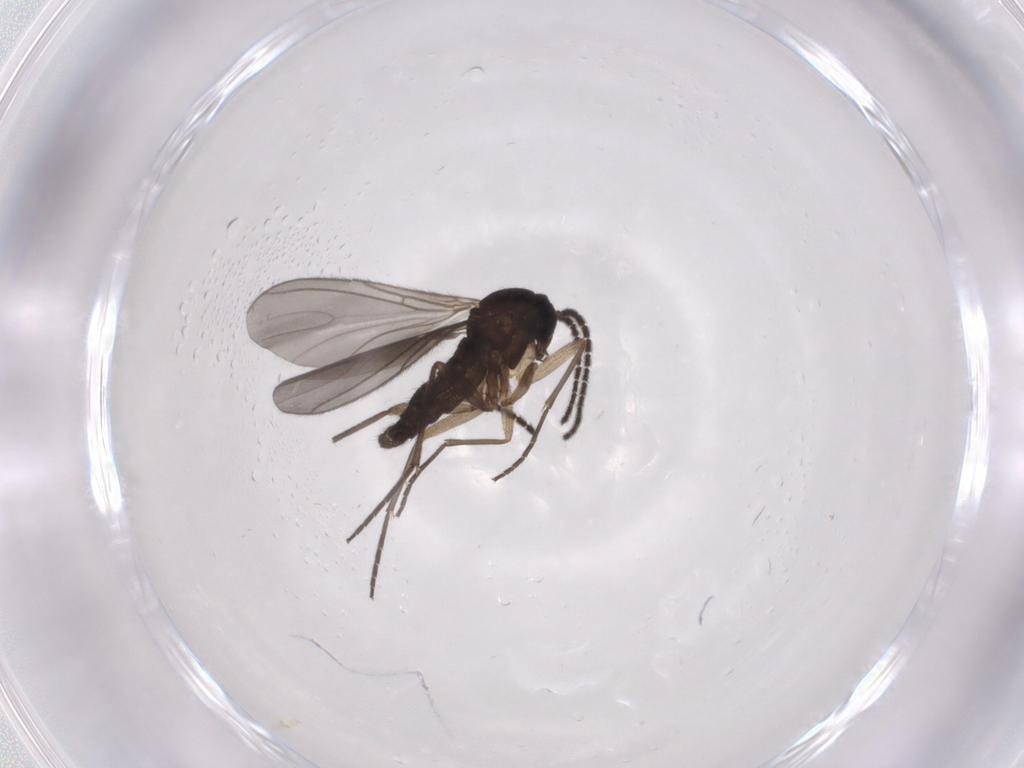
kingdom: Animalia
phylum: Arthropoda
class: Insecta
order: Diptera
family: Sciaridae
